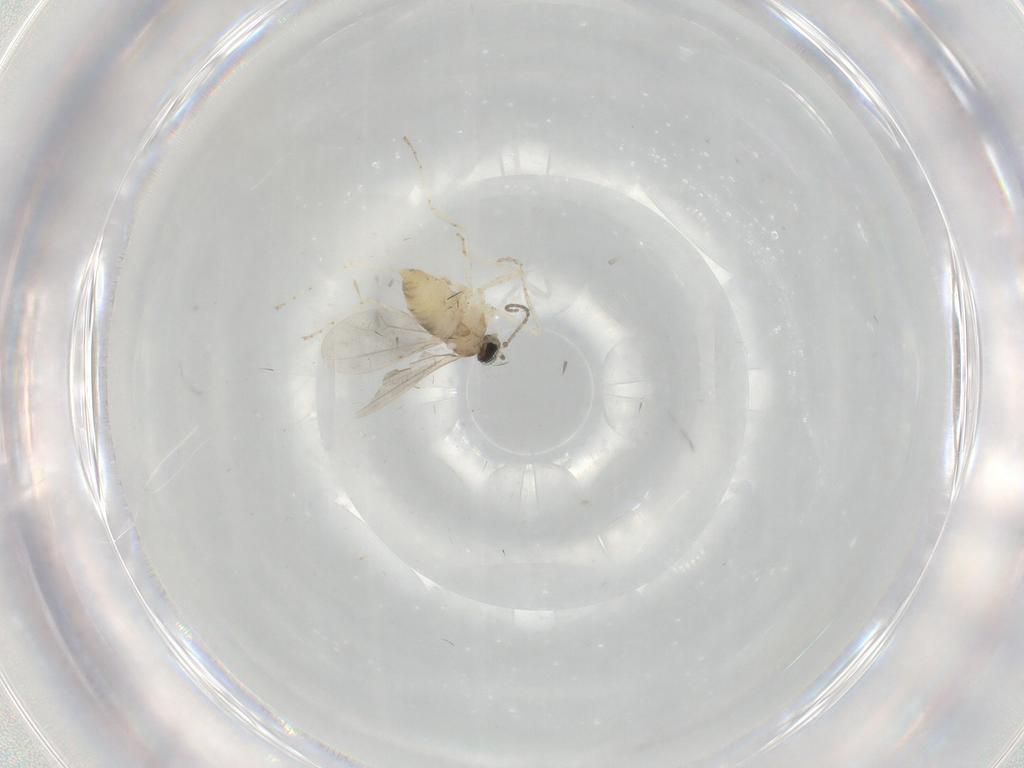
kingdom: Animalia
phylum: Arthropoda
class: Insecta
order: Diptera
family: Cecidomyiidae
